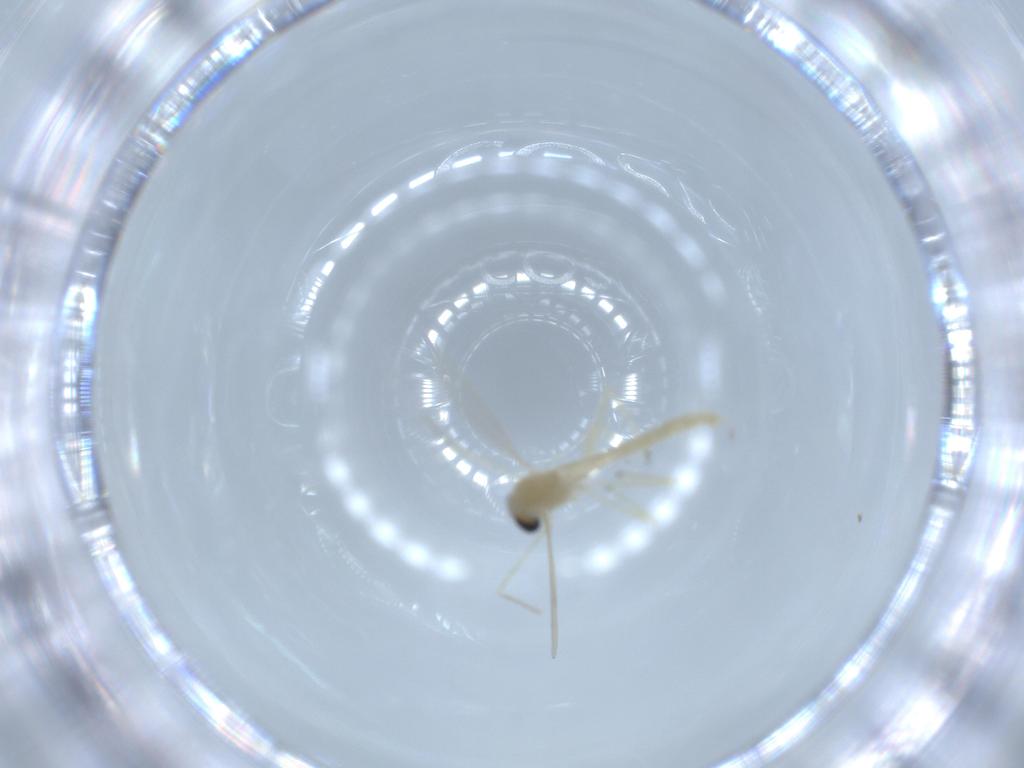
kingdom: Animalia
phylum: Arthropoda
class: Insecta
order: Diptera
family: Chironomidae
